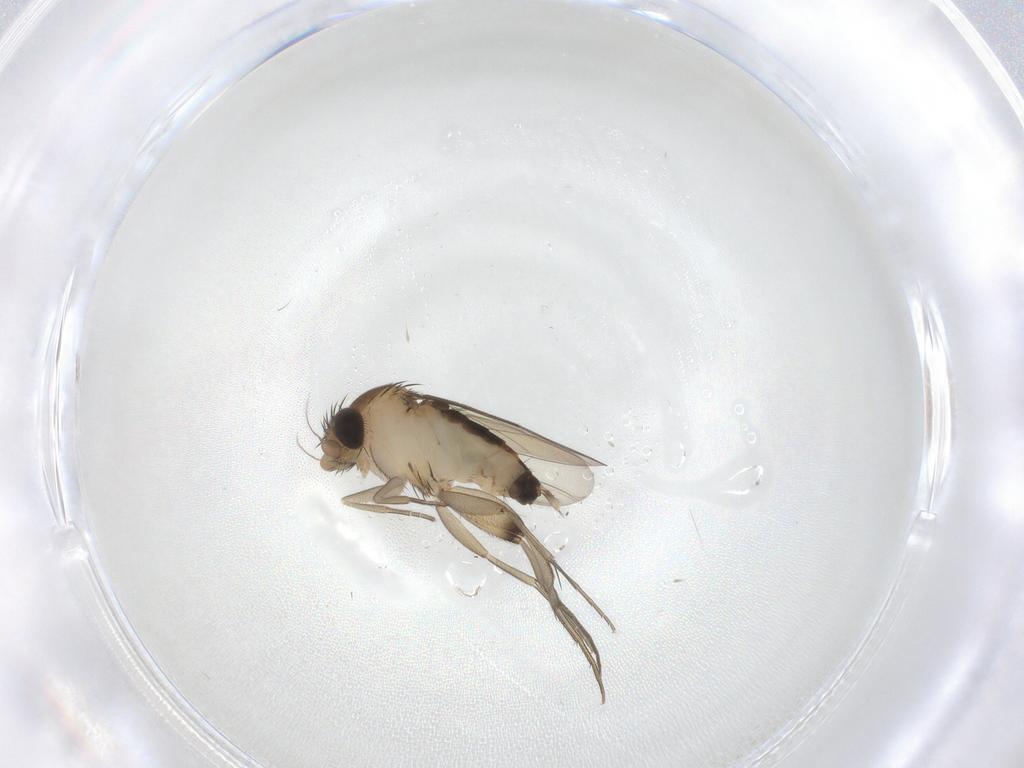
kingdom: Animalia
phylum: Arthropoda
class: Insecta
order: Diptera
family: Phoridae
